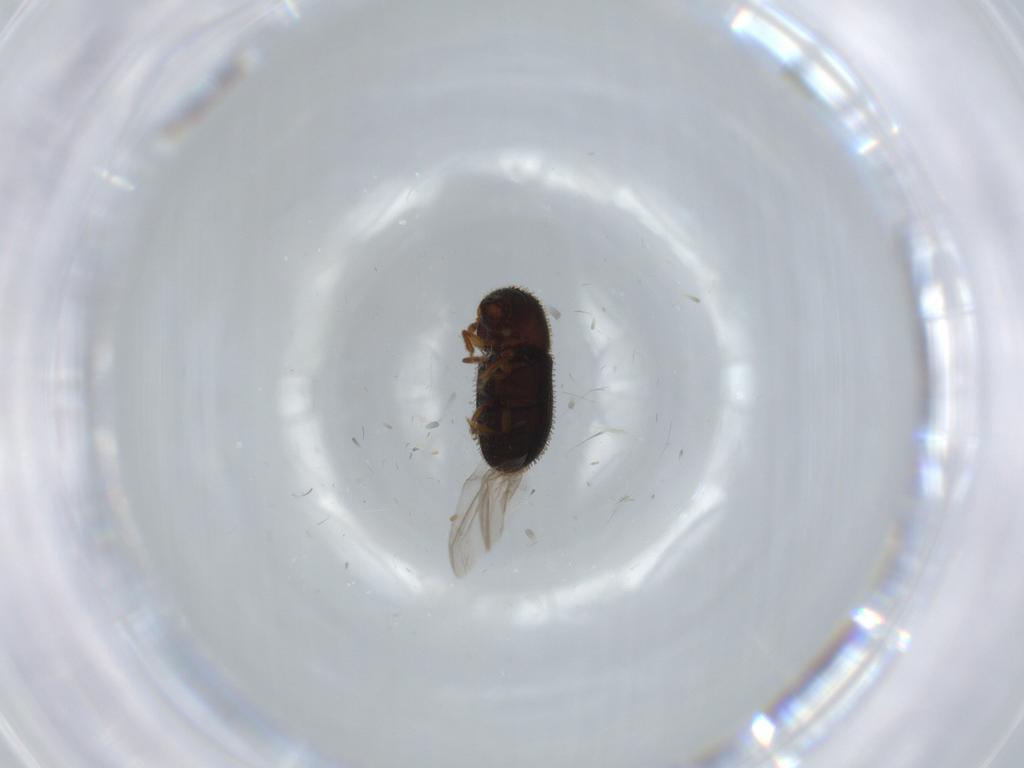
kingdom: Animalia
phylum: Arthropoda
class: Insecta
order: Coleoptera
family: Curculionidae
